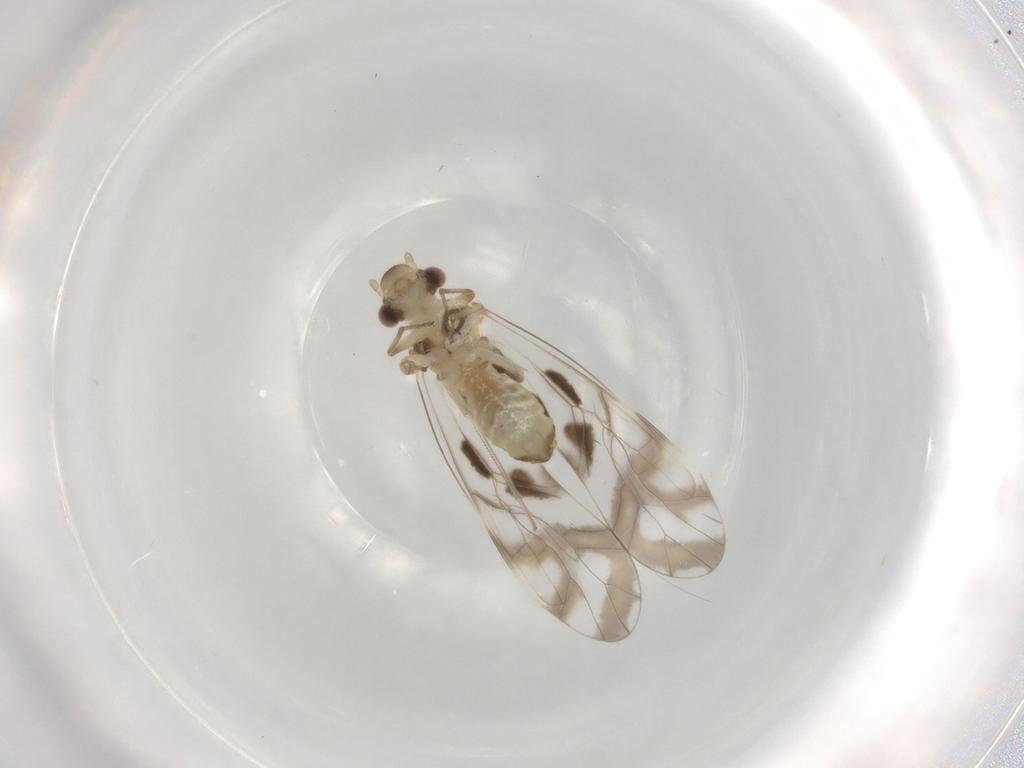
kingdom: Animalia
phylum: Arthropoda
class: Insecta
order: Psocodea
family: Stenopsocidae
